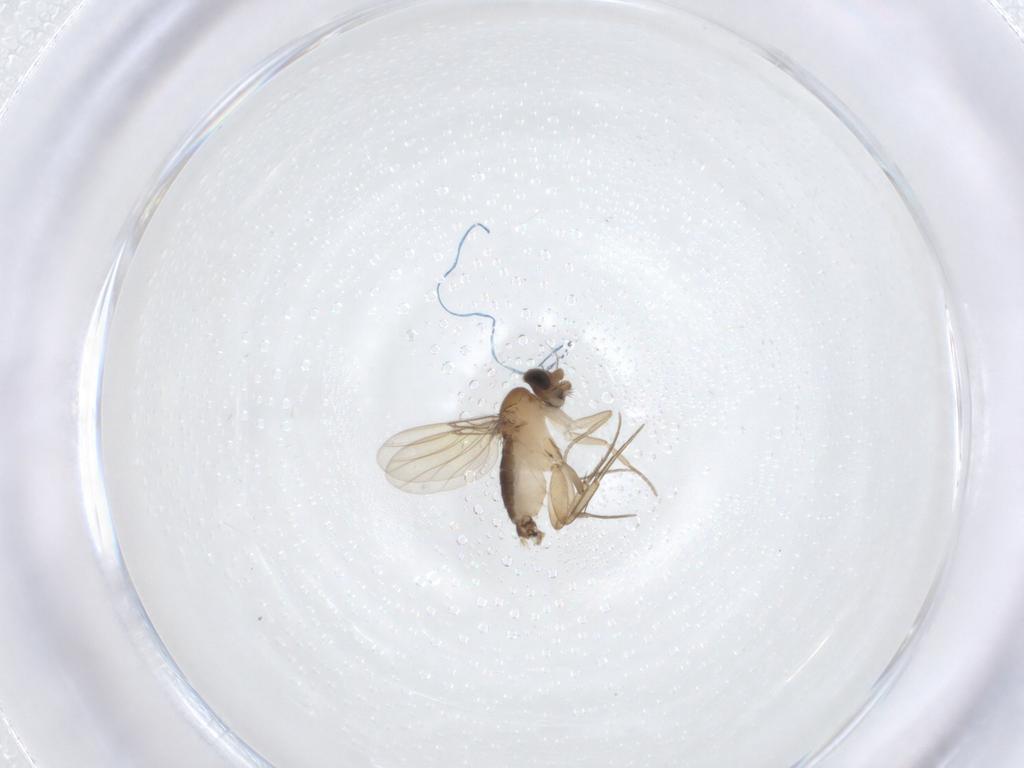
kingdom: Animalia
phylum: Arthropoda
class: Insecta
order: Diptera
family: Phoridae
